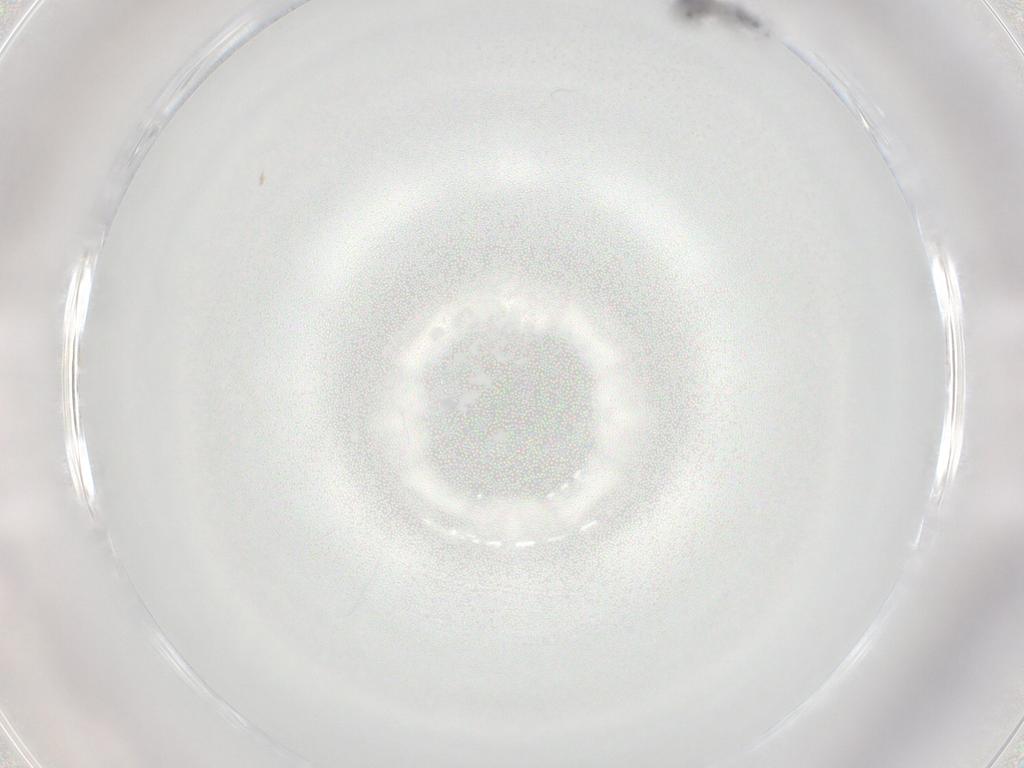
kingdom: Animalia
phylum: Arthropoda
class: Collembola
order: Entomobryomorpha
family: Entomobryidae
